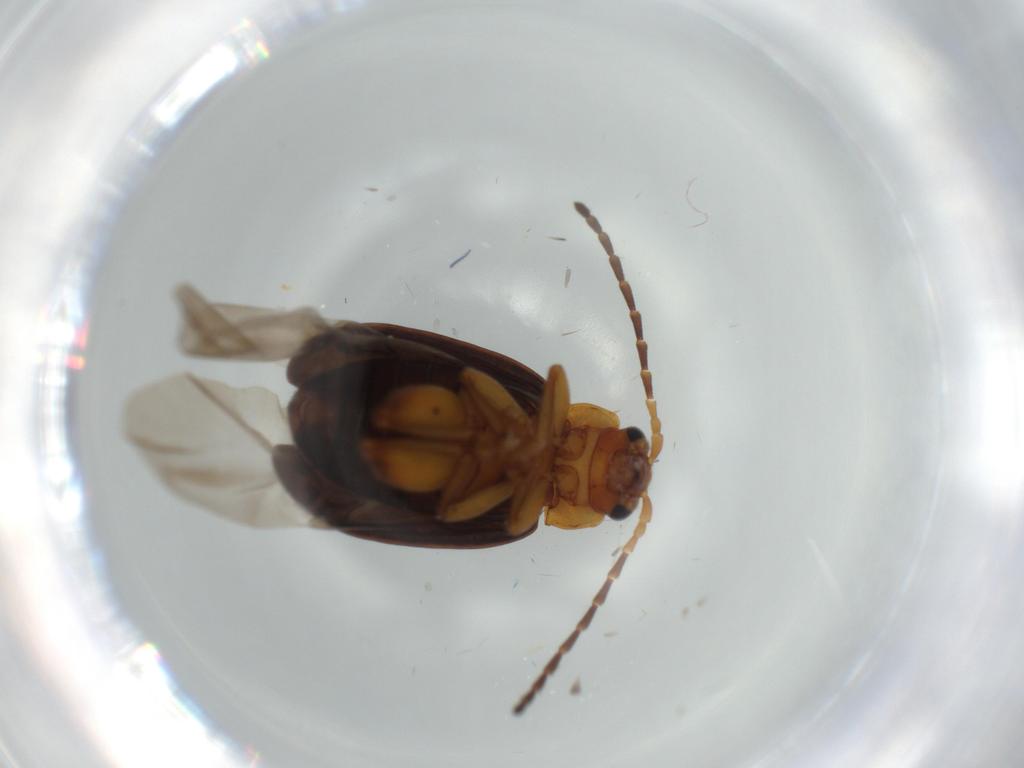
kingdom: Animalia
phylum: Arthropoda
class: Insecta
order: Coleoptera
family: Chrysomelidae
